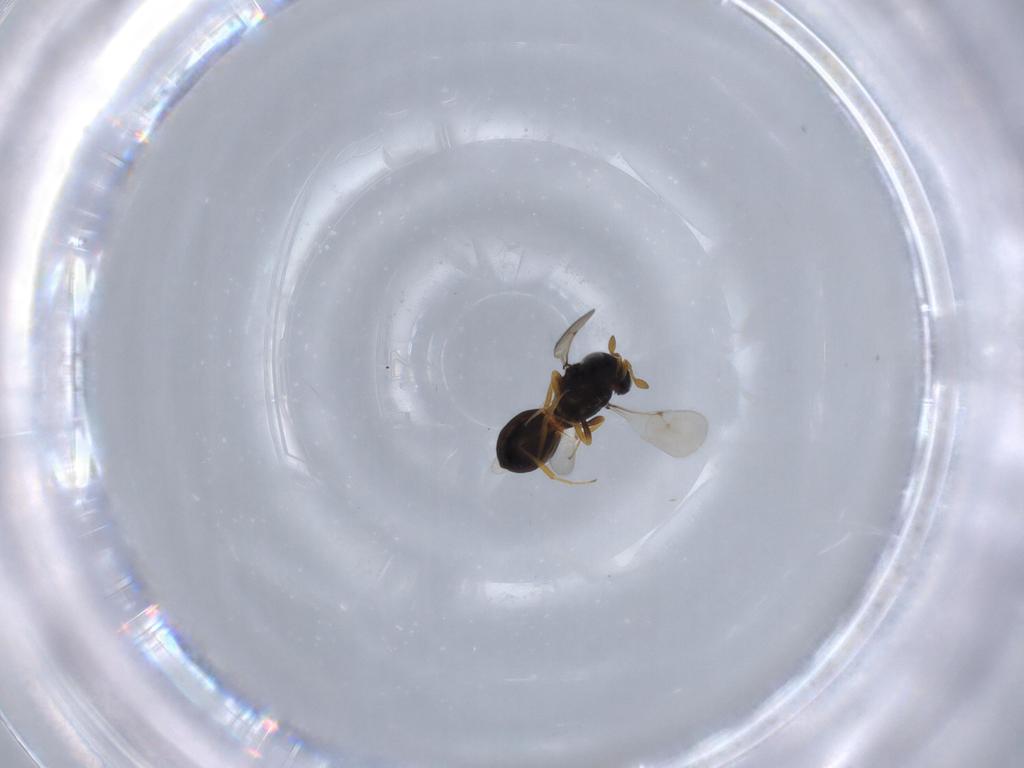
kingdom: Animalia
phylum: Arthropoda
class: Insecta
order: Hymenoptera
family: Scelionidae
